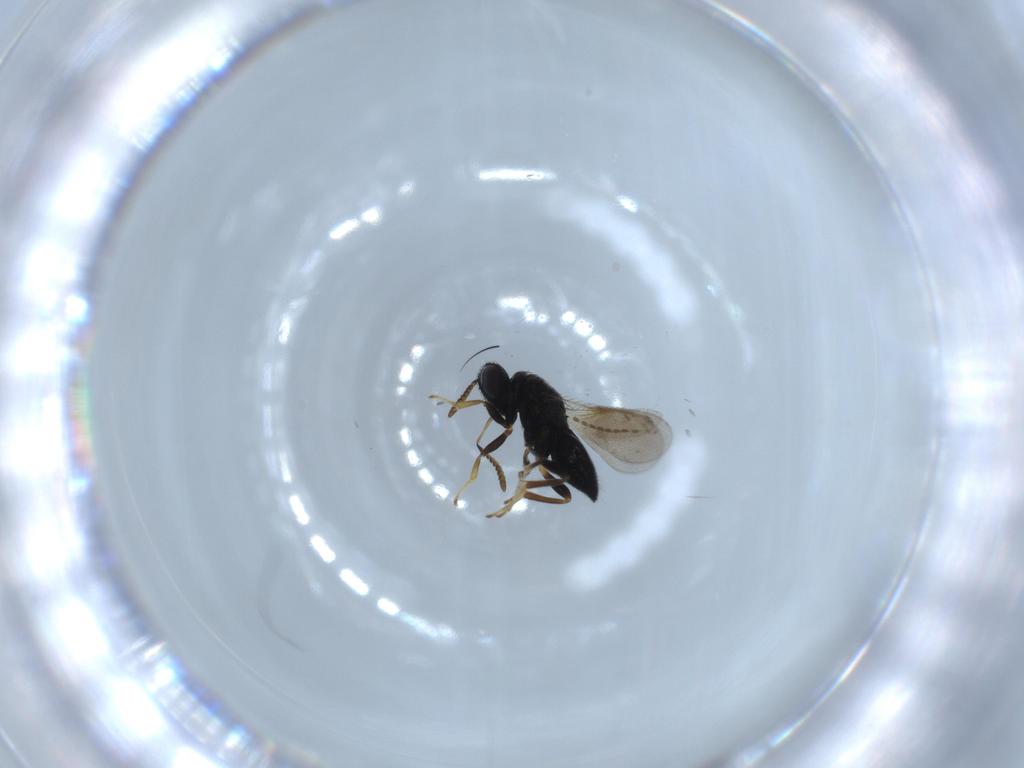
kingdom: Animalia
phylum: Arthropoda
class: Insecta
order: Hymenoptera
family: Pteromalidae
